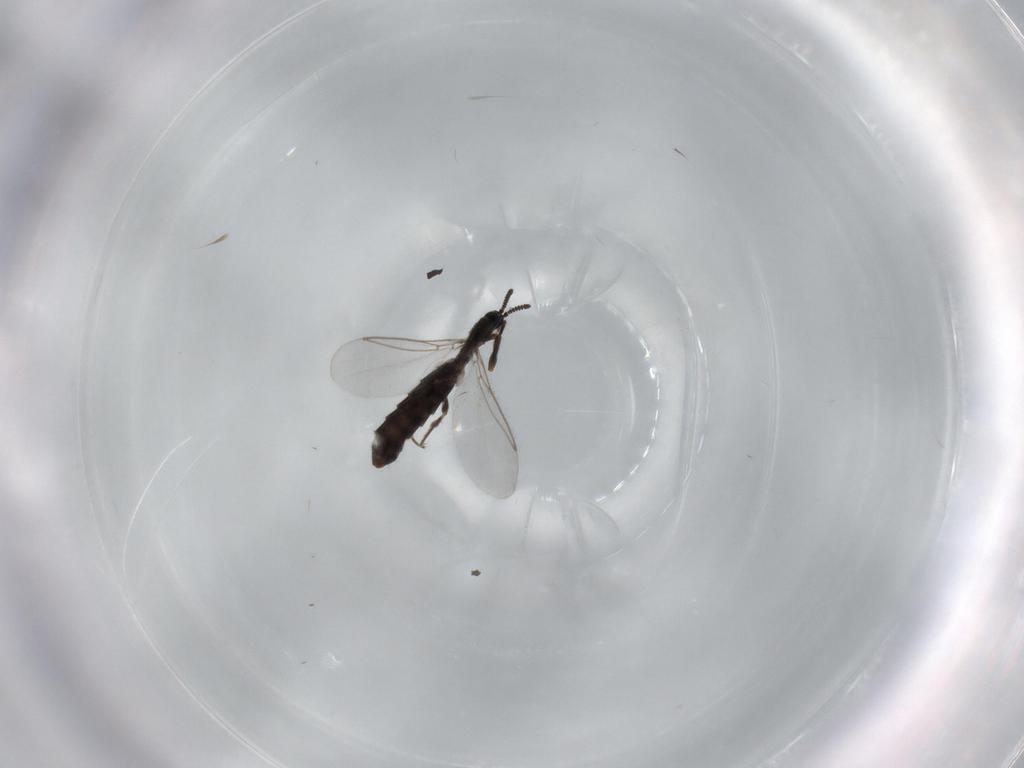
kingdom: Animalia
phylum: Arthropoda
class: Insecta
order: Diptera
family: Scatopsidae
